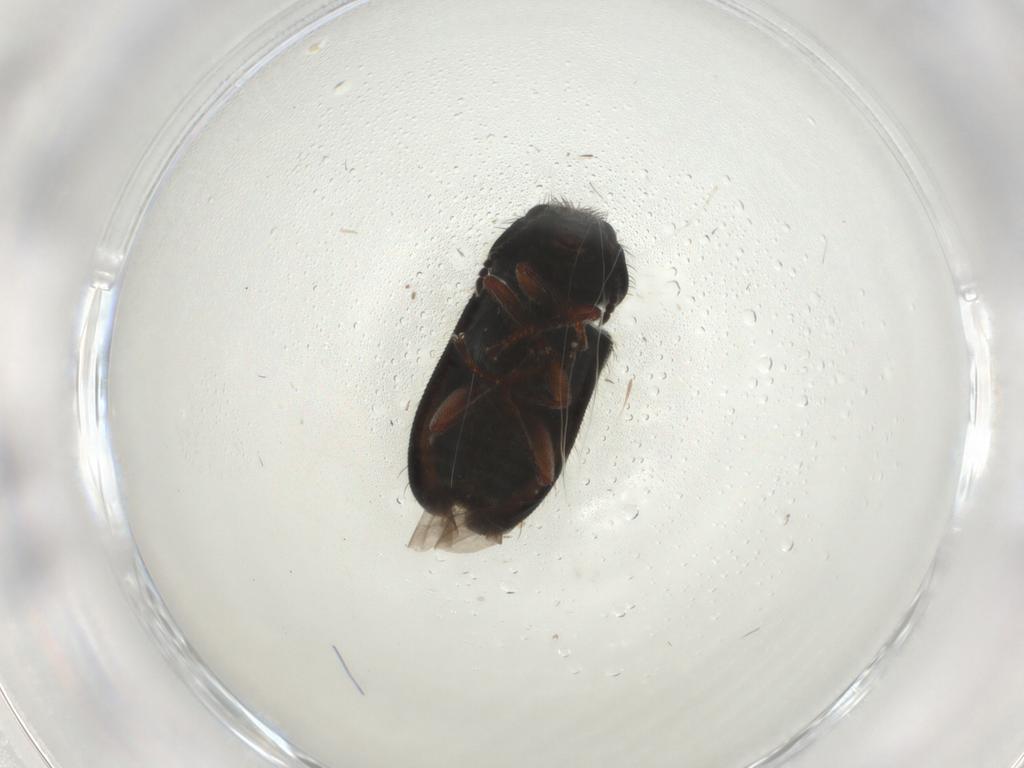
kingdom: Animalia
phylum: Arthropoda
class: Insecta
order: Coleoptera
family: Melyridae
